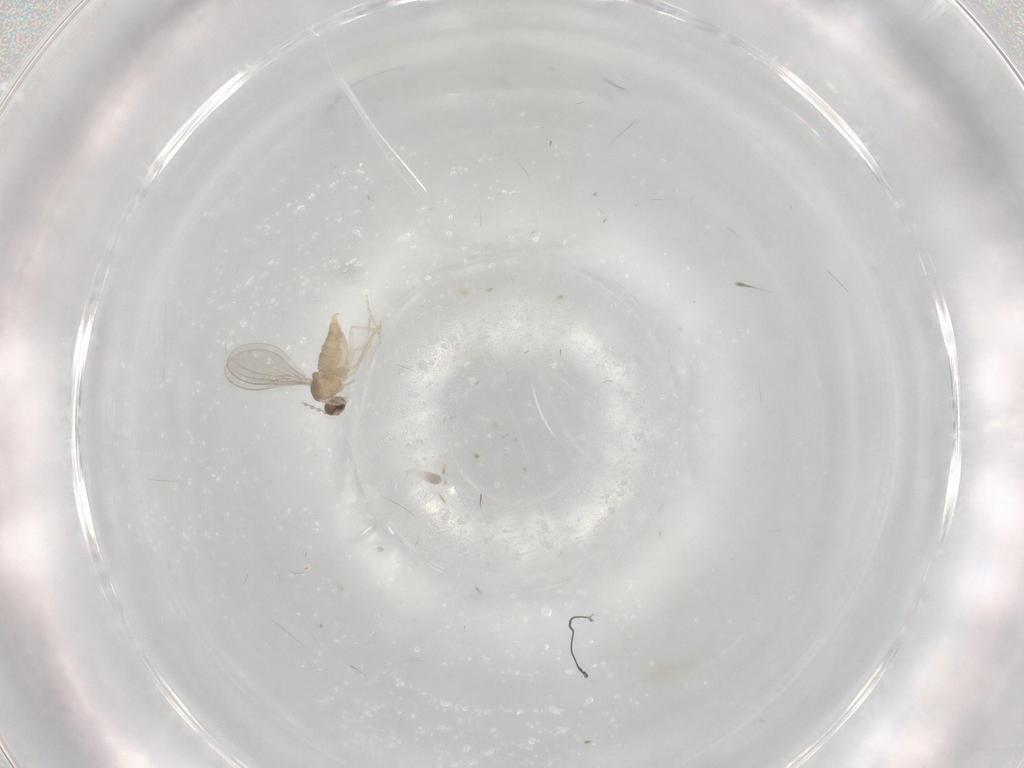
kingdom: Animalia
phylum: Arthropoda
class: Insecta
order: Diptera
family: Cecidomyiidae
